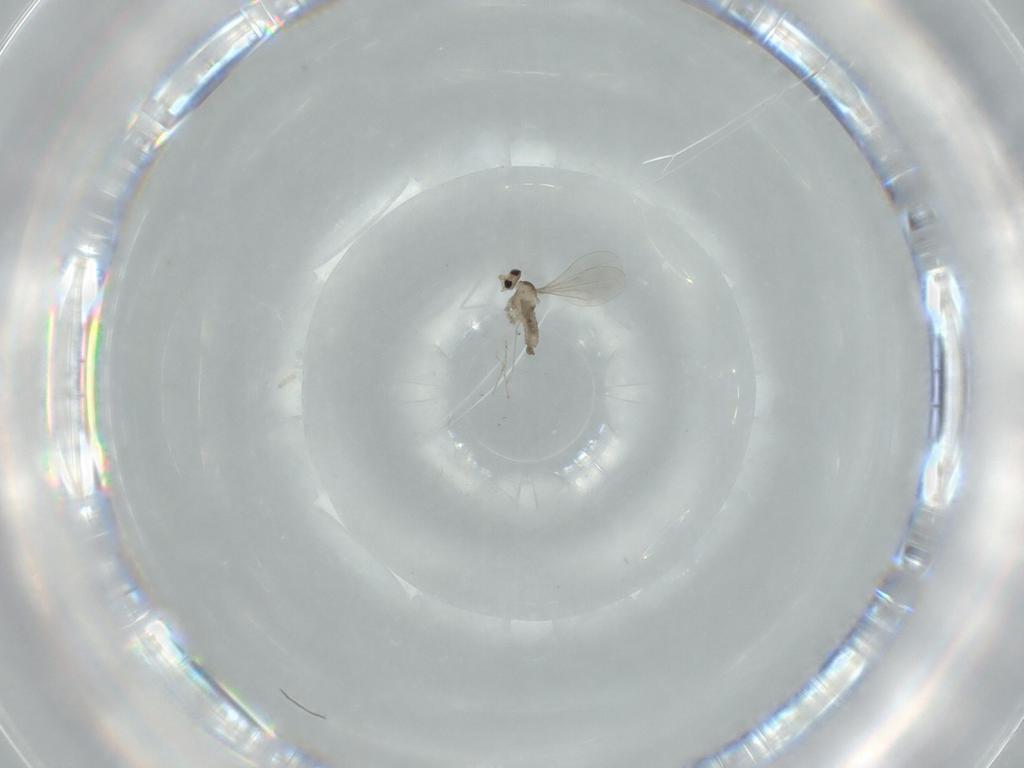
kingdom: Animalia
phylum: Arthropoda
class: Insecta
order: Diptera
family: Cecidomyiidae
